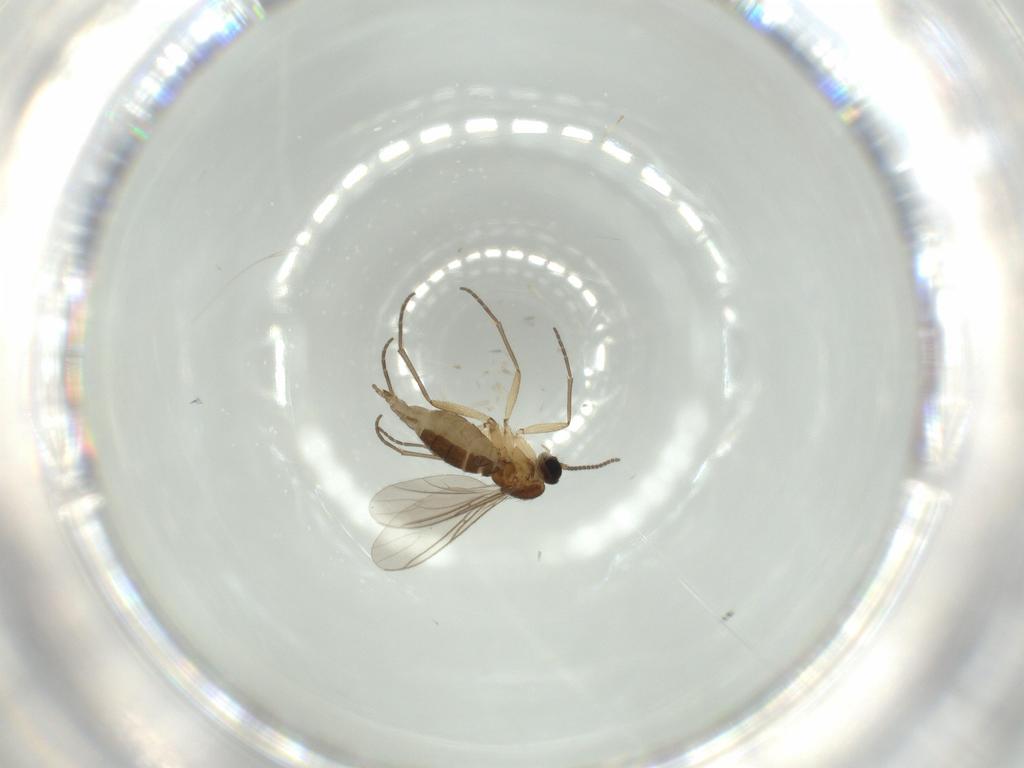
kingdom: Animalia
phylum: Arthropoda
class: Insecta
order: Diptera
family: Sciaridae
